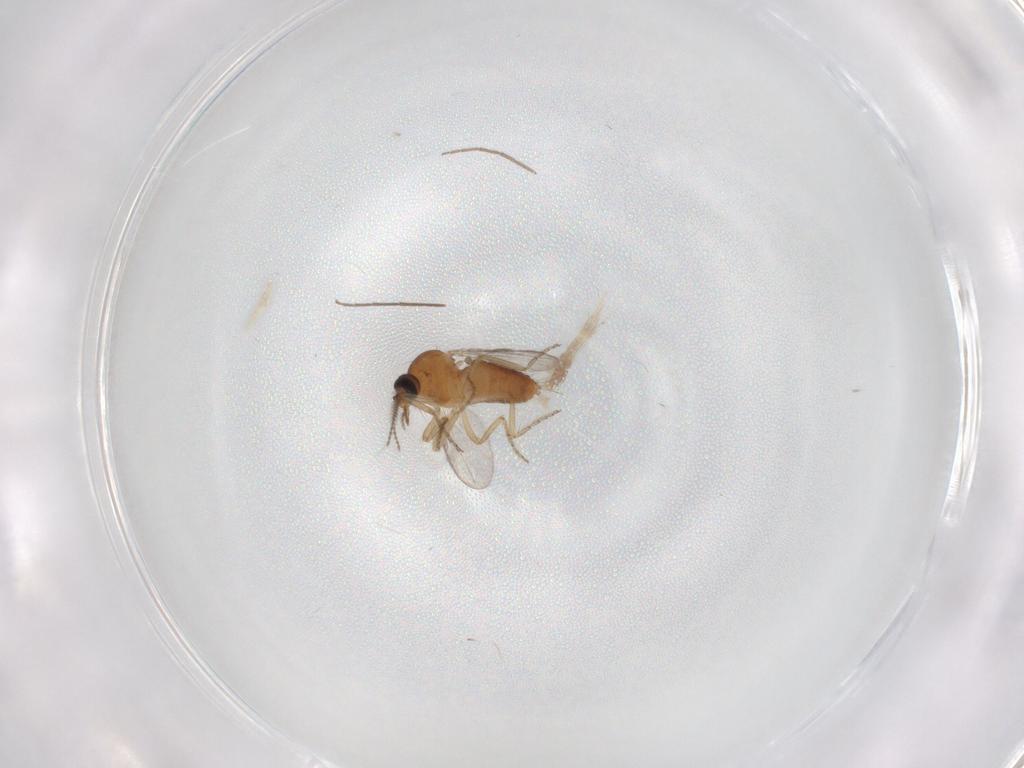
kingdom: Animalia
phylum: Arthropoda
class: Insecta
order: Diptera
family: Ceratopogonidae
